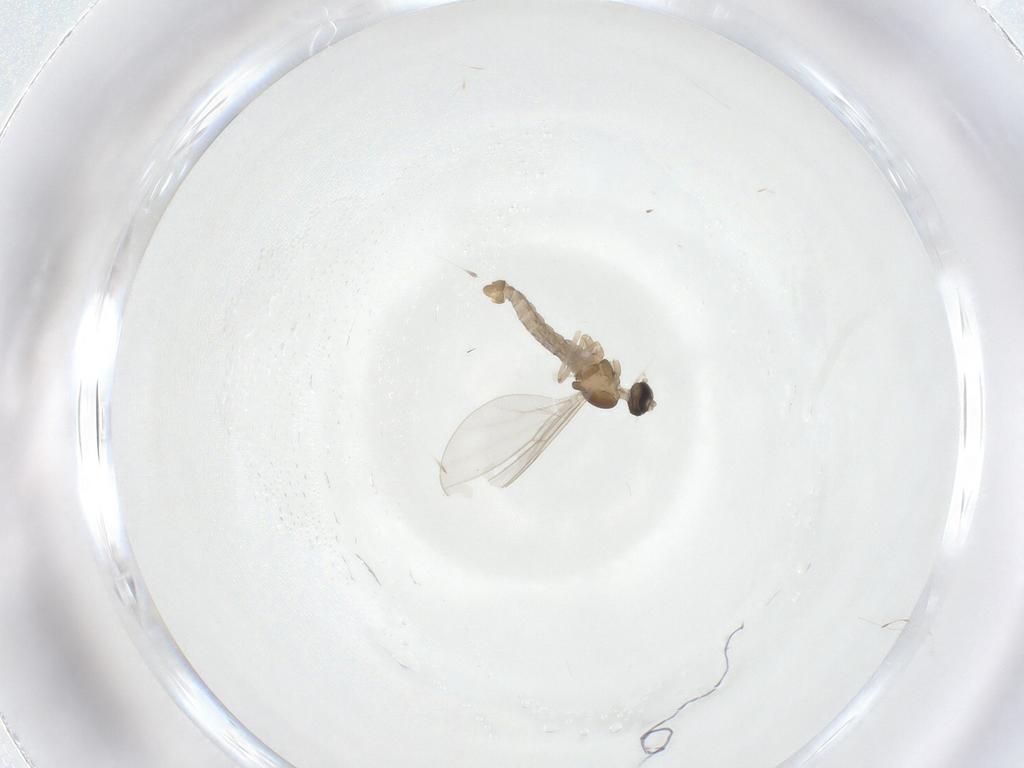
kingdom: Animalia
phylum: Arthropoda
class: Insecta
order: Diptera
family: Cecidomyiidae
